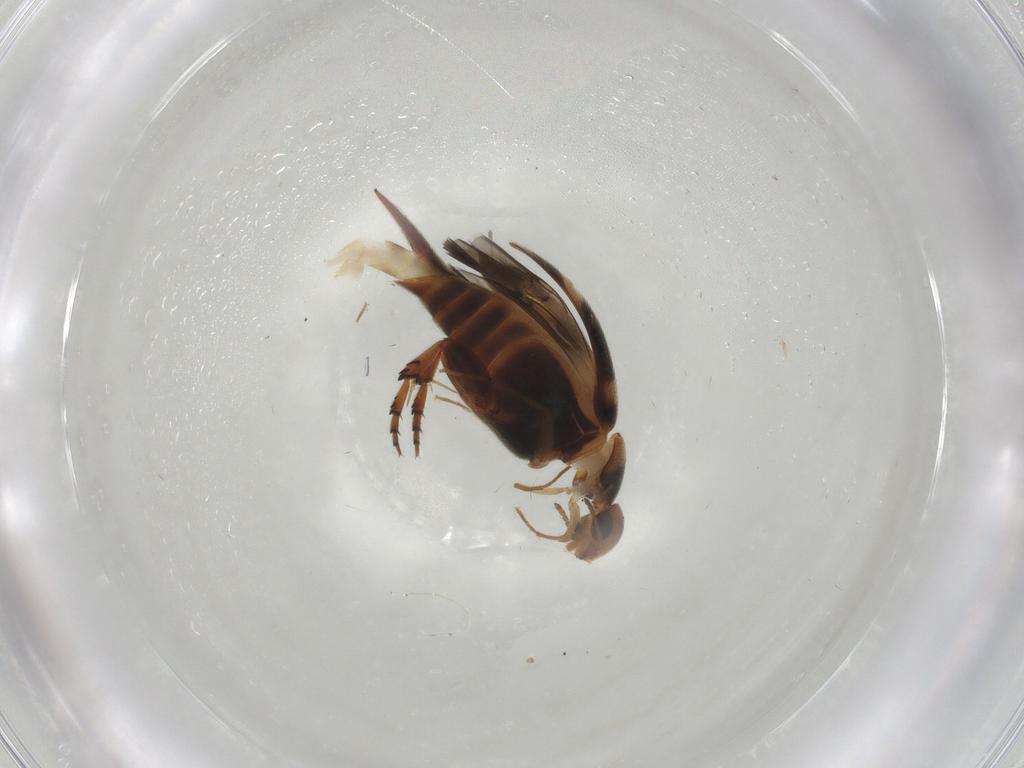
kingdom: Animalia
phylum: Arthropoda
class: Insecta
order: Coleoptera
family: Mordellidae
